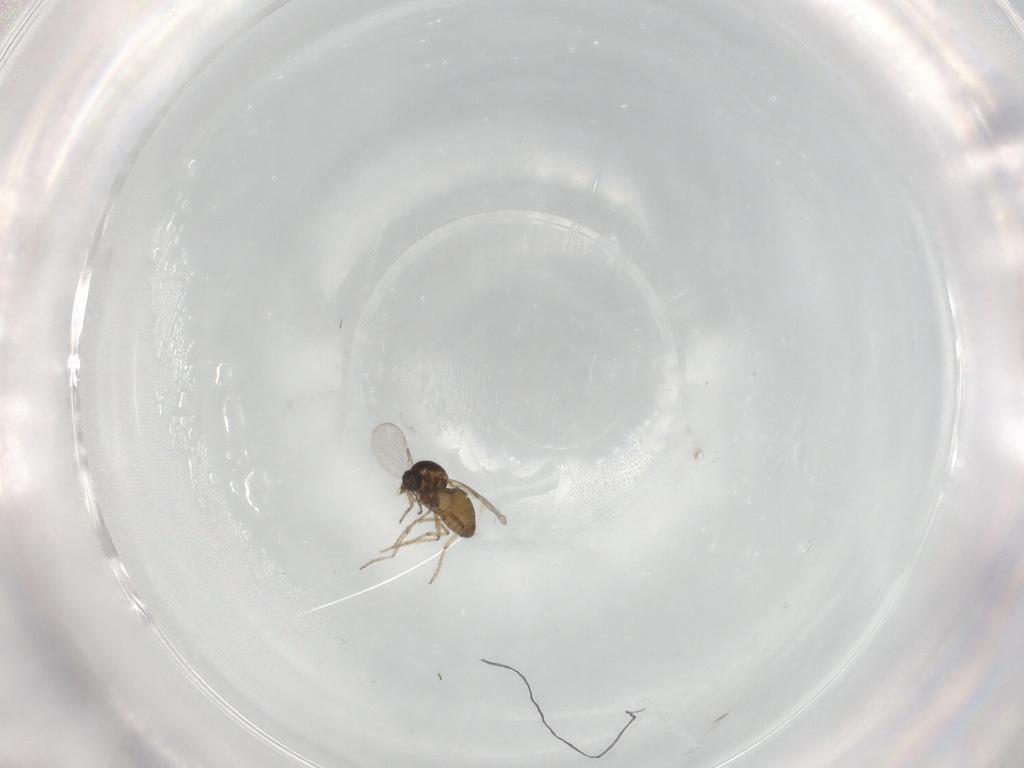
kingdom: Animalia
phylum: Arthropoda
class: Insecta
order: Diptera
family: Ceratopogonidae
